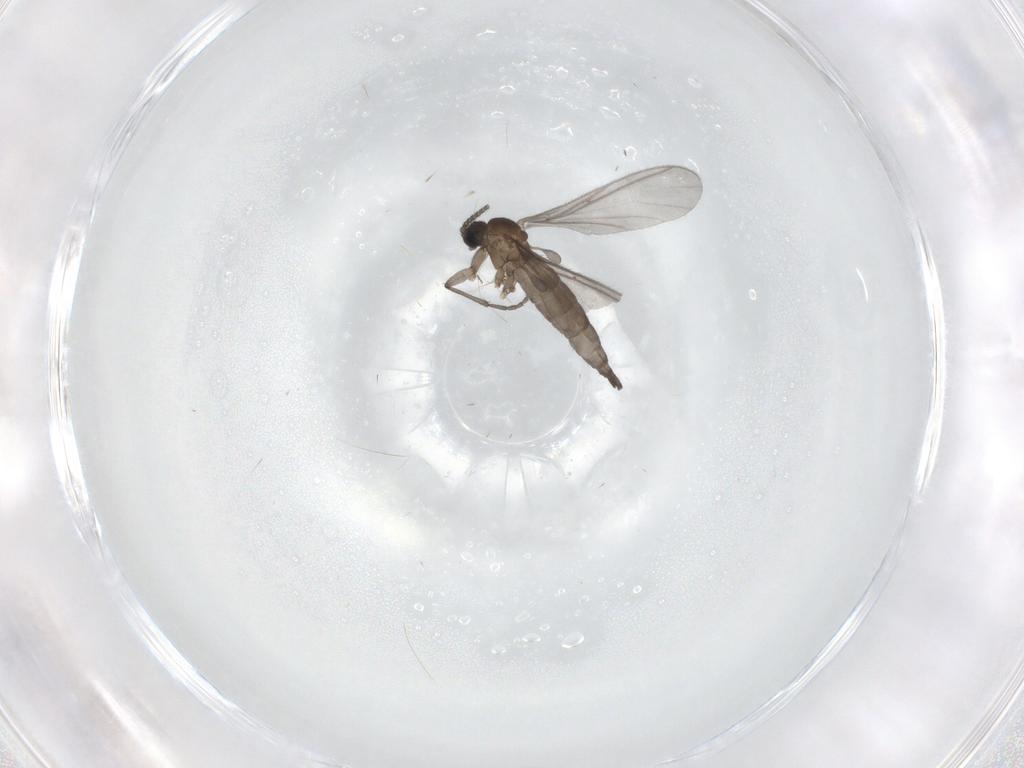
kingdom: Animalia
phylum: Arthropoda
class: Insecta
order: Diptera
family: Sciaridae
